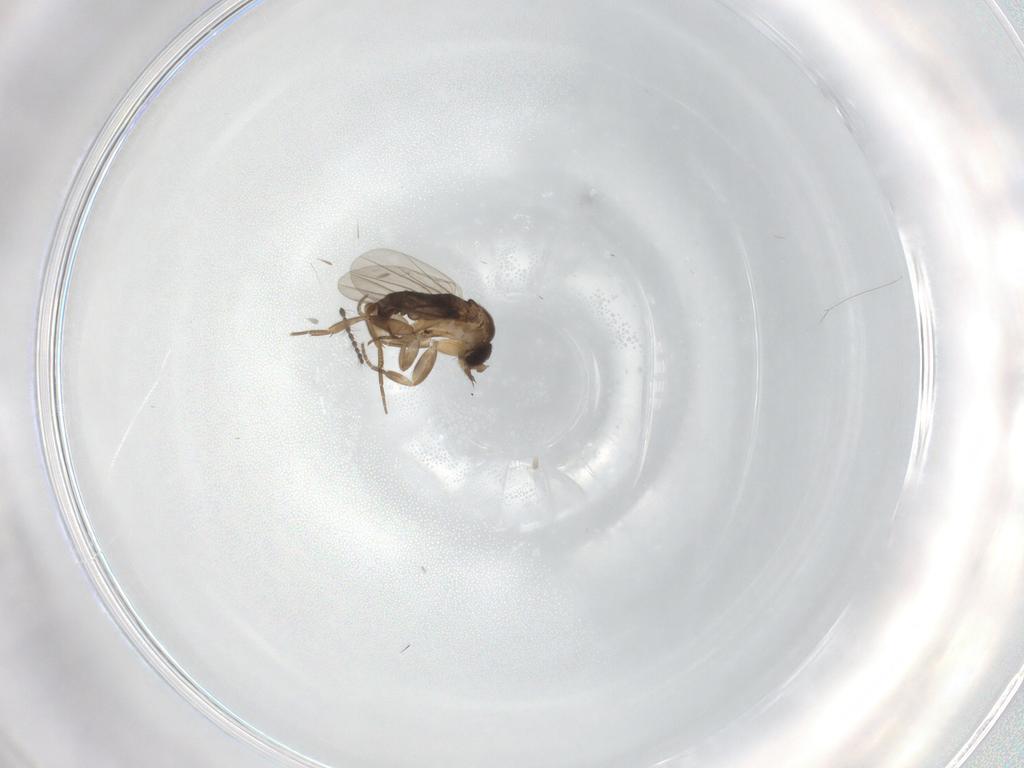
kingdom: Animalia
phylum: Arthropoda
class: Insecta
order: Diptera
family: Limoniidae
